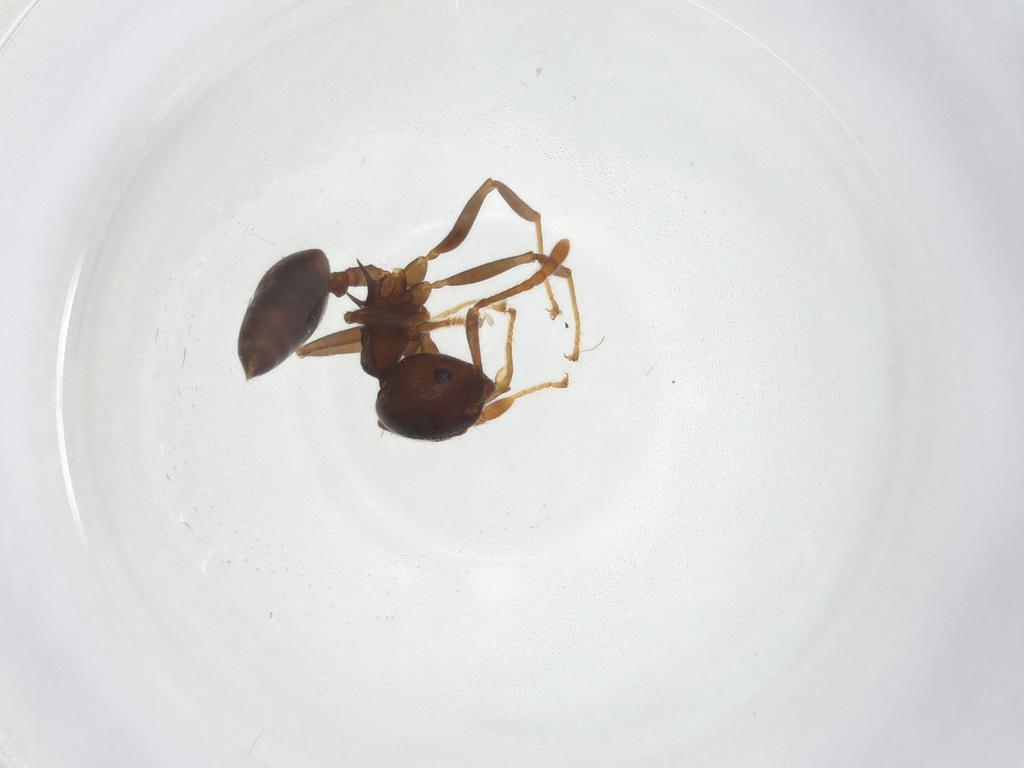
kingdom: Animalia
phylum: Arthropoda
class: Insecta
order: Hymenoptera
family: Formicidae
